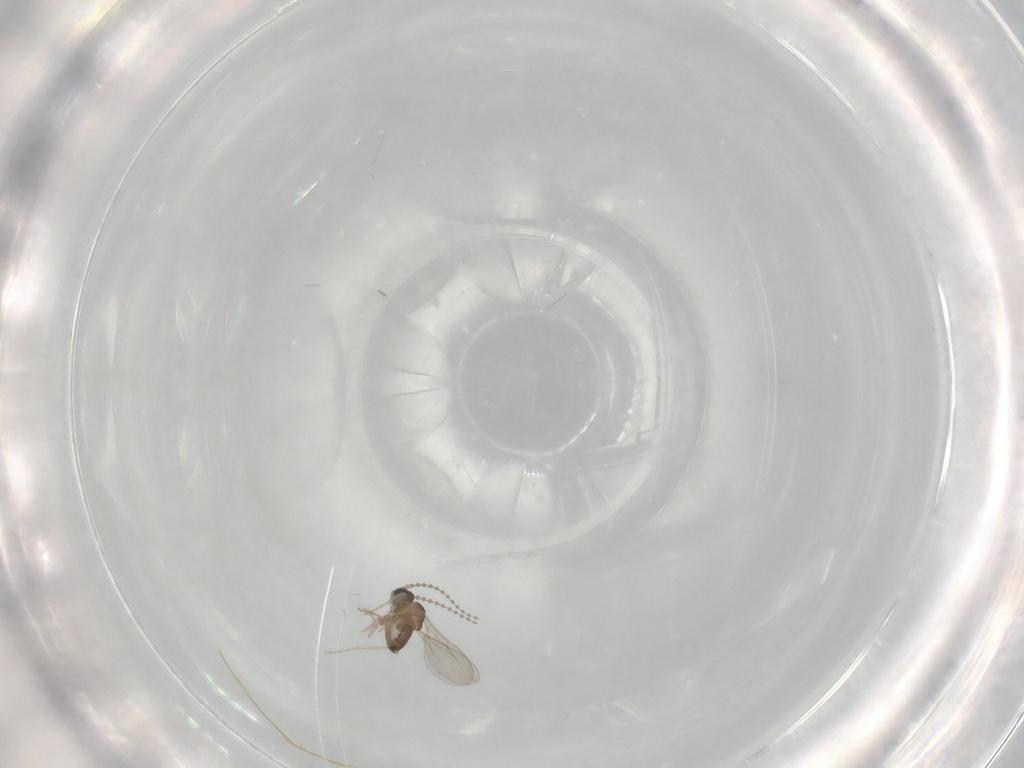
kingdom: Animalia
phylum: Arthropoda
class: Insecta
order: Diptera
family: Cecidomyiidae
